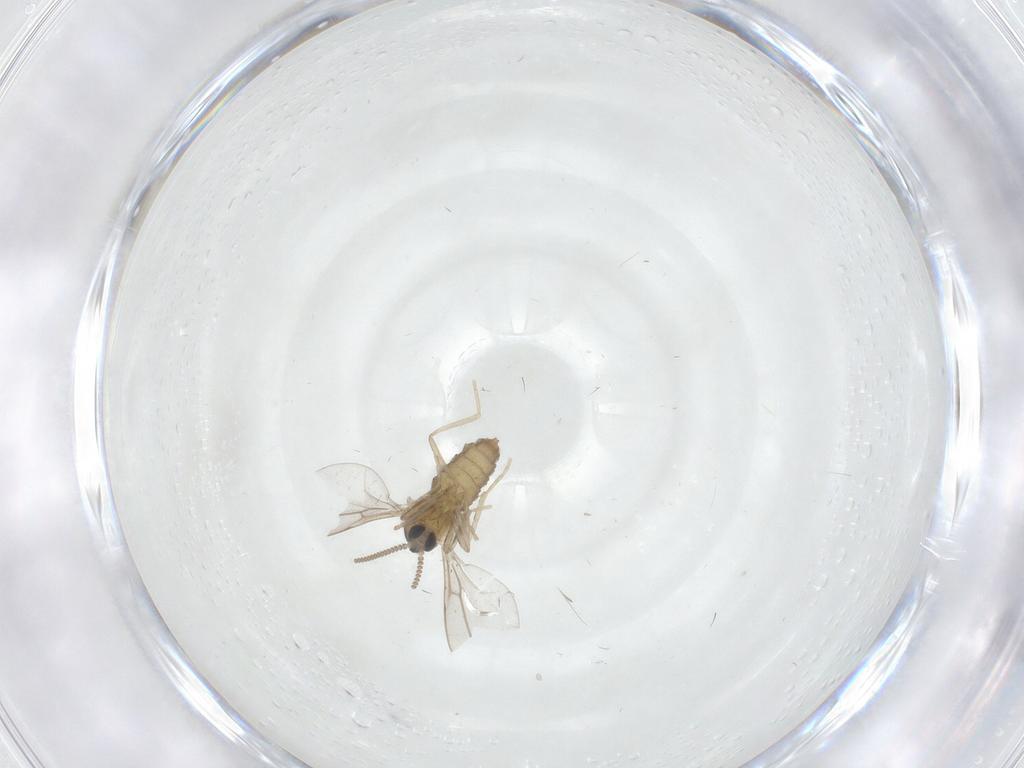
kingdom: Animalia
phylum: Arthropoda
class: Insecta
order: Diptera
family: Cecidomyiidae
